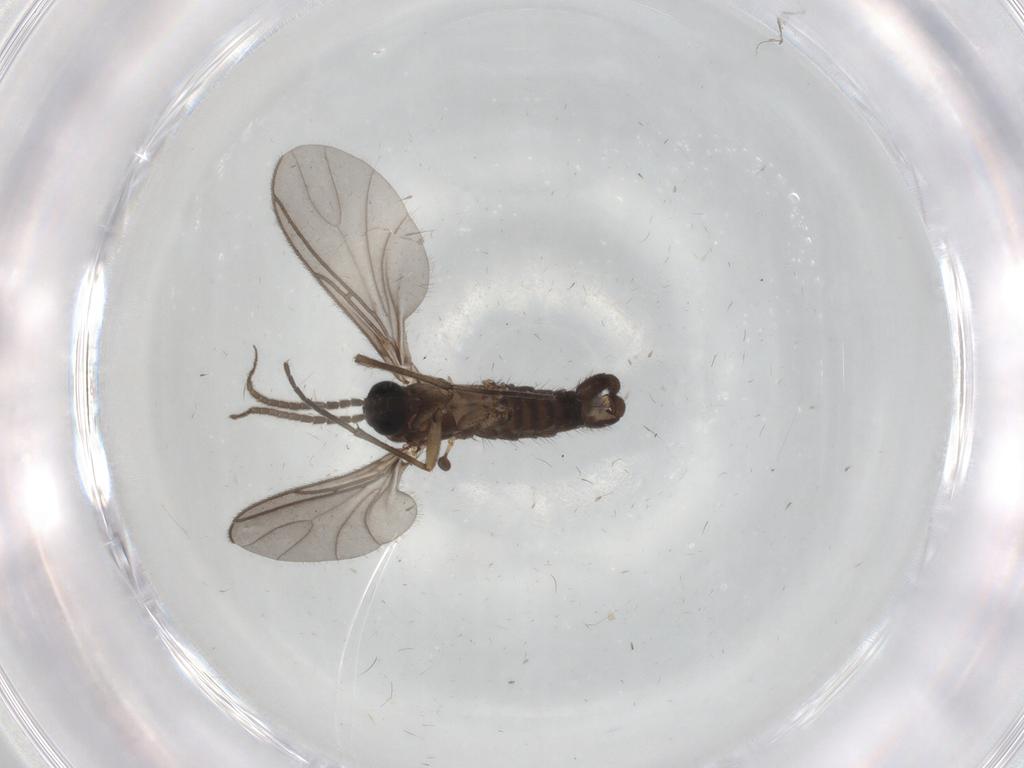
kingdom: Animalia
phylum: Arthropoda
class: Insecta
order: Diptera
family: Sciaridae
